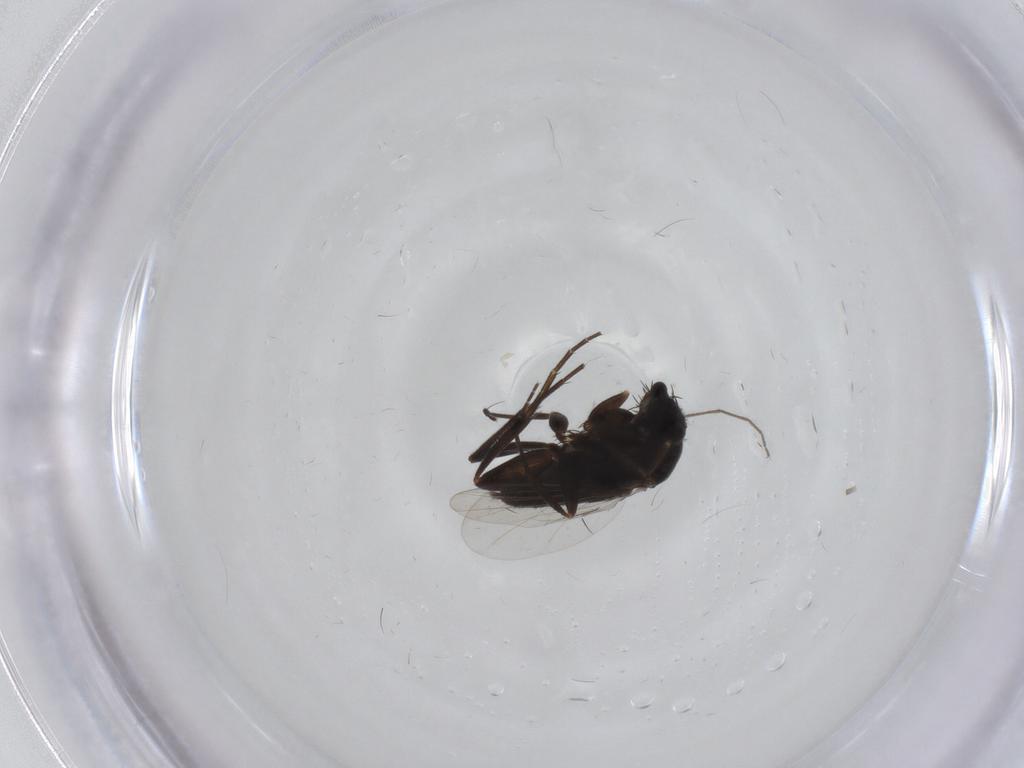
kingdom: Animalia
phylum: Arthropoda
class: Insecta
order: Diptera
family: Phoridae
